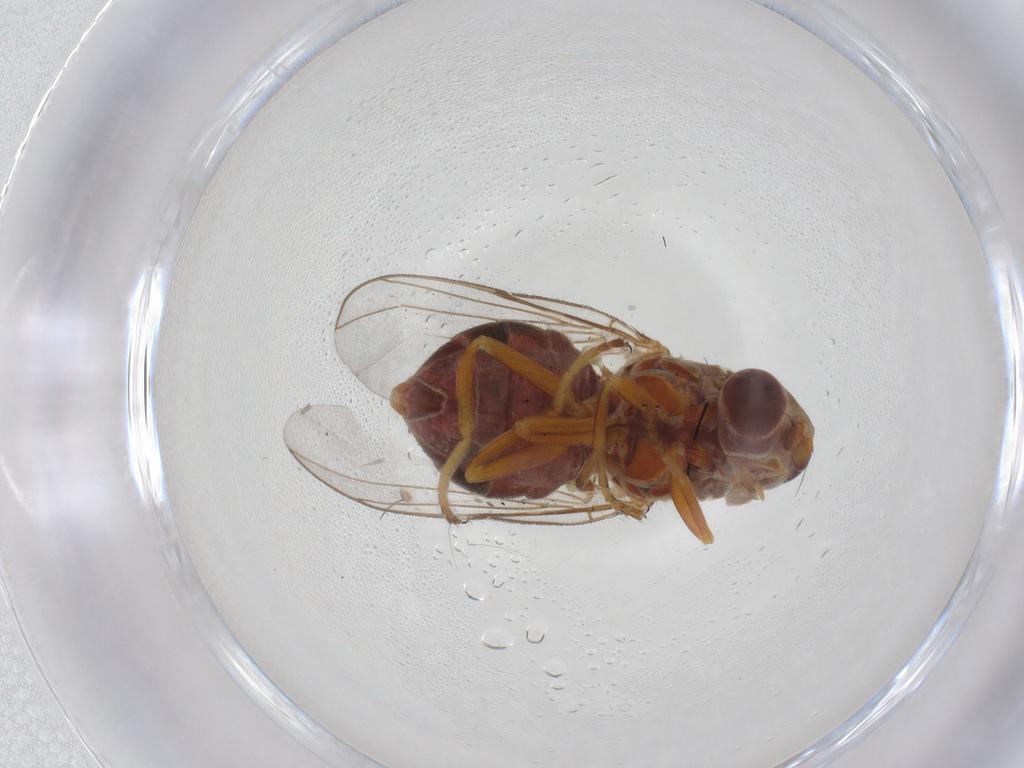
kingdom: Animalia
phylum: Arthropoda
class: Insecta
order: Diptera
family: Chloropidae
